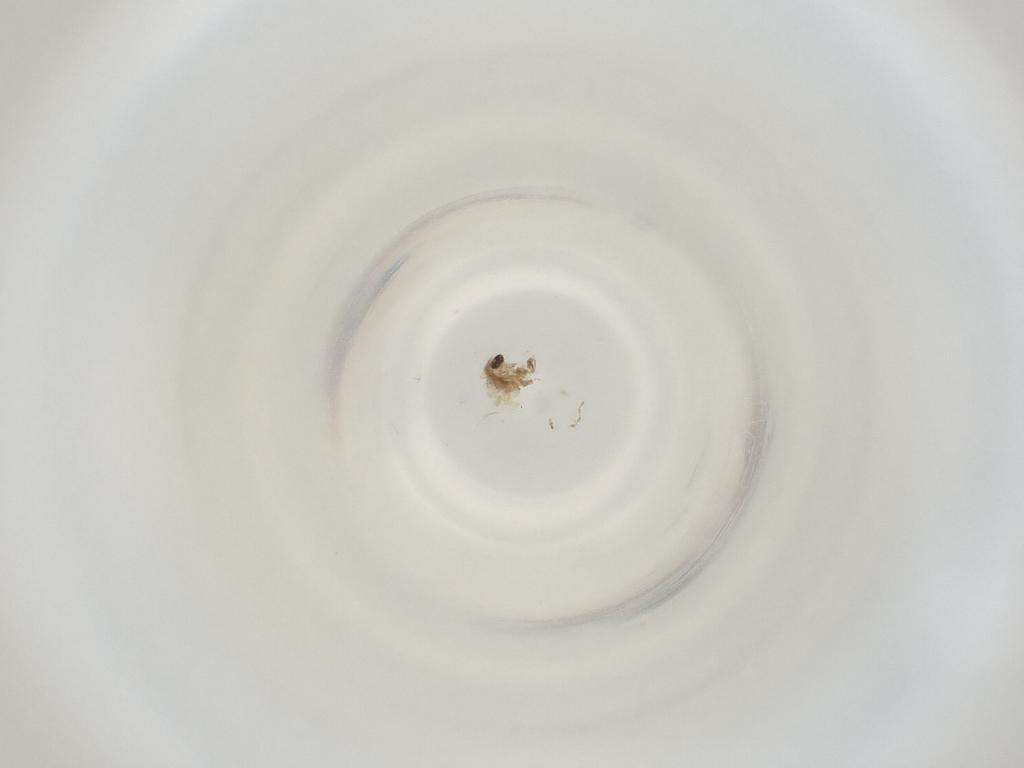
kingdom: Animalia
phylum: Arthropoda
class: Insecta
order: Diptera
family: Cecidomyiidae
